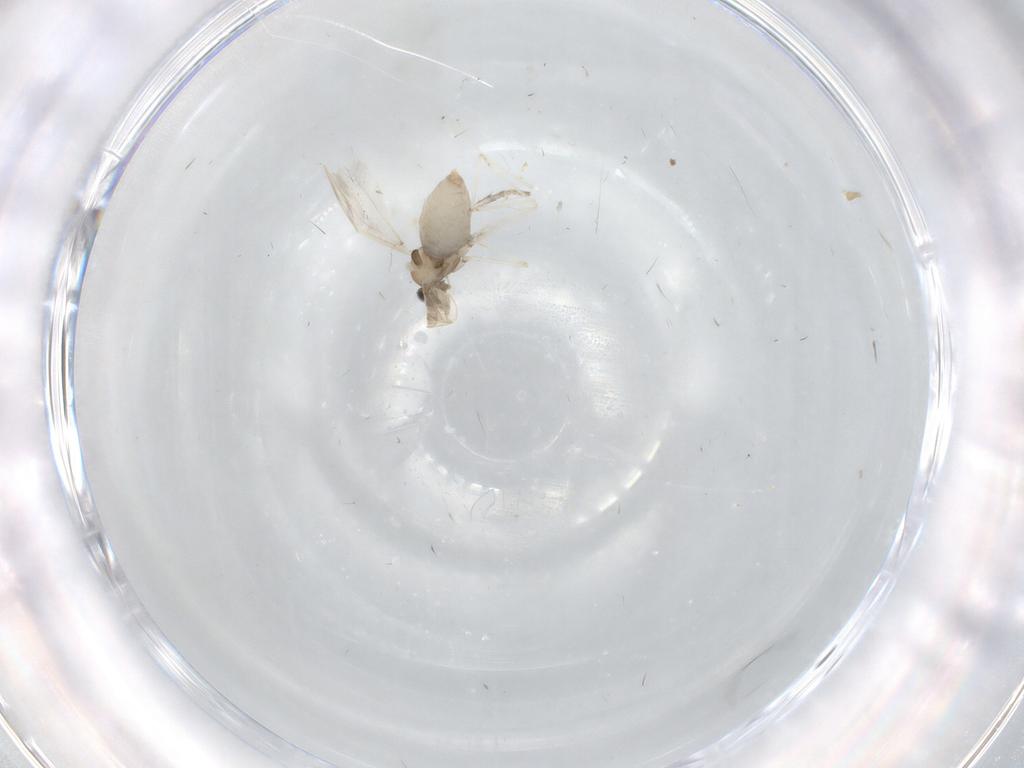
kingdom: Animalia
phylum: Arthropoda
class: Insecta
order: Diptera
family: Cecidomyiidae
